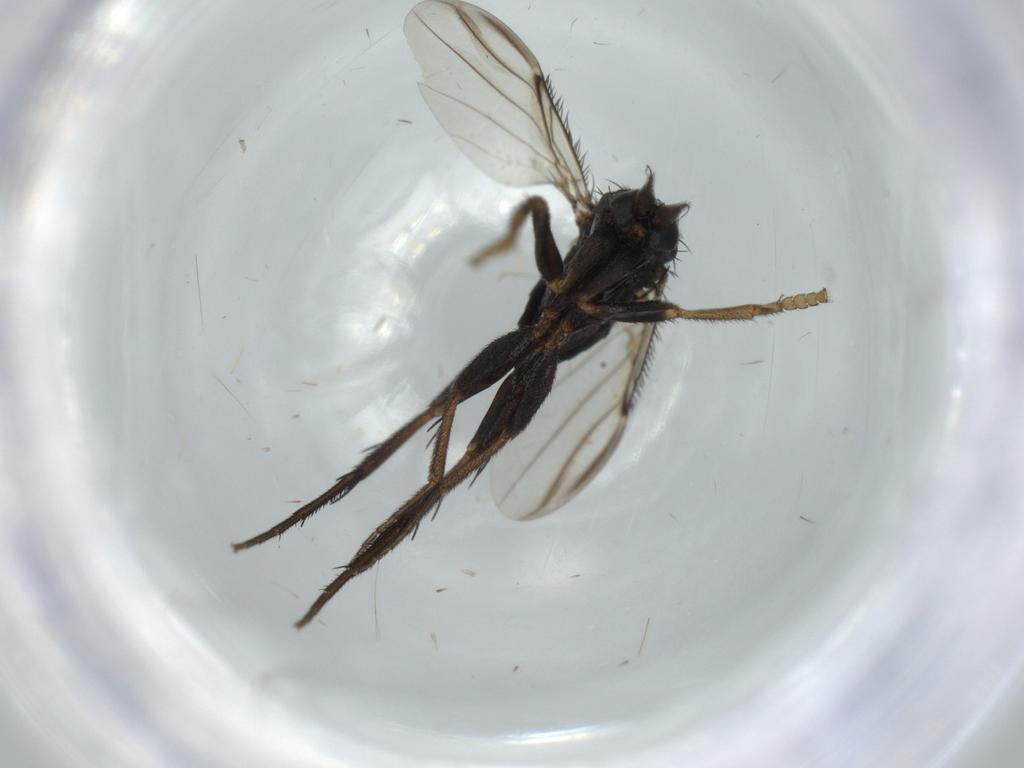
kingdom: Animalia
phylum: Arthropoda
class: Insecta
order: Diptera
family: Phoridae
